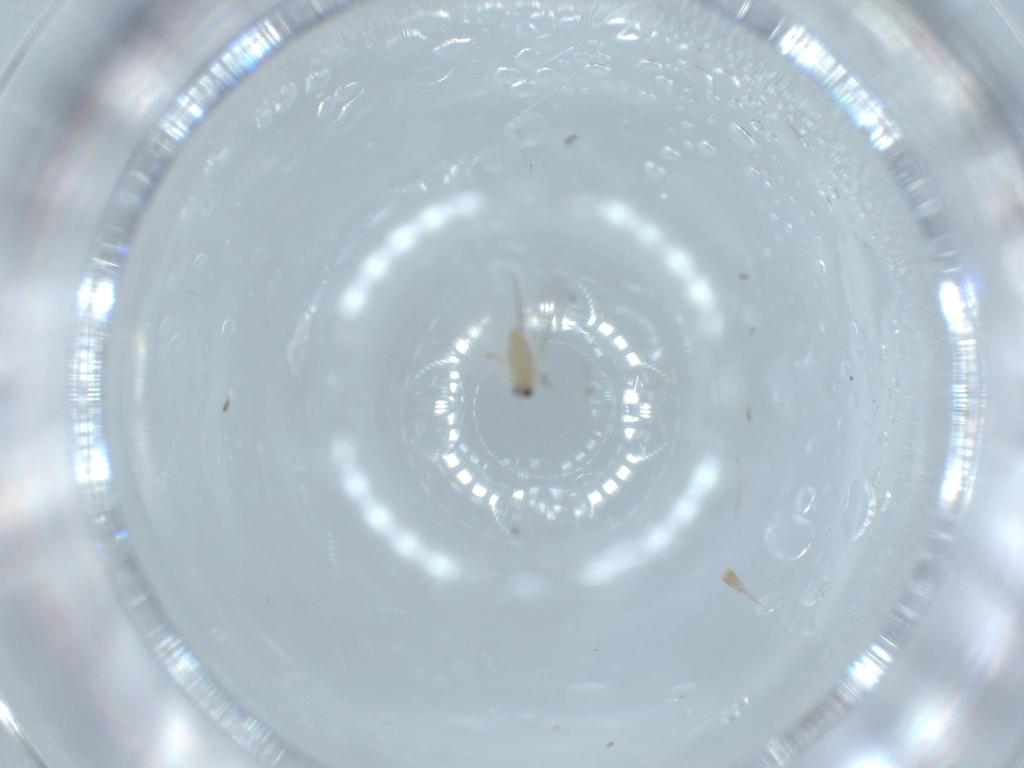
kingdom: Animalia
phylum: Arthropoda
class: Insecta
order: Diptera
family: Cecidomyiidae
